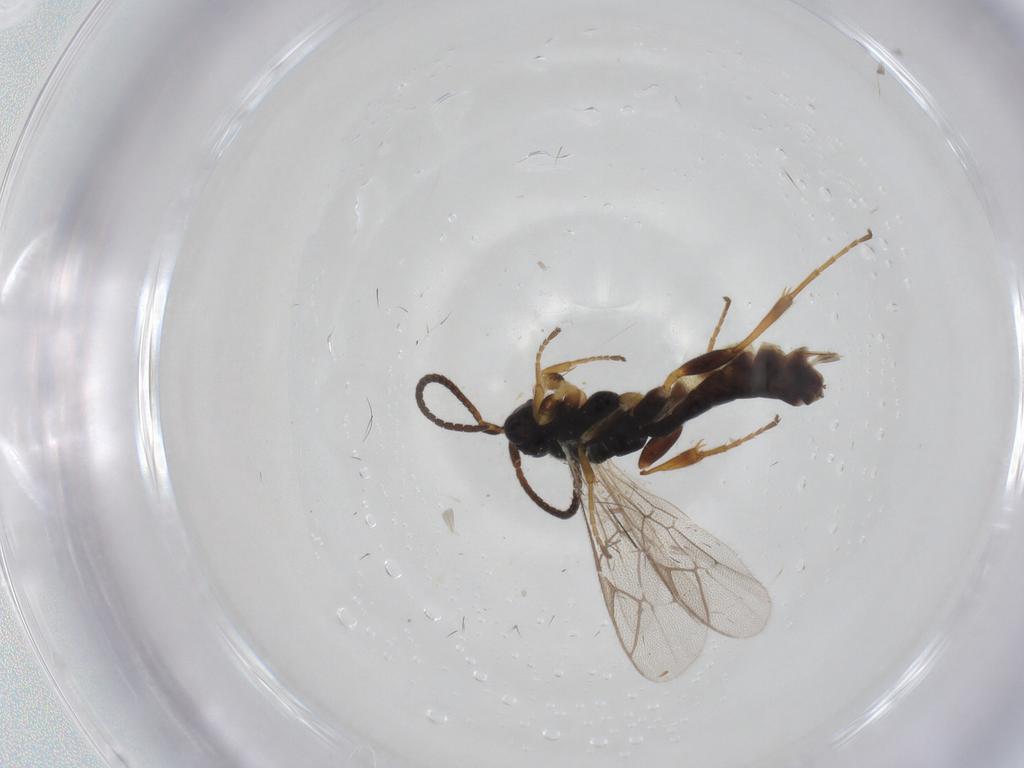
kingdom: Animalia
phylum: Arthropoda
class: Insecta
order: Hymenoptera
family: Ichneumonidae
